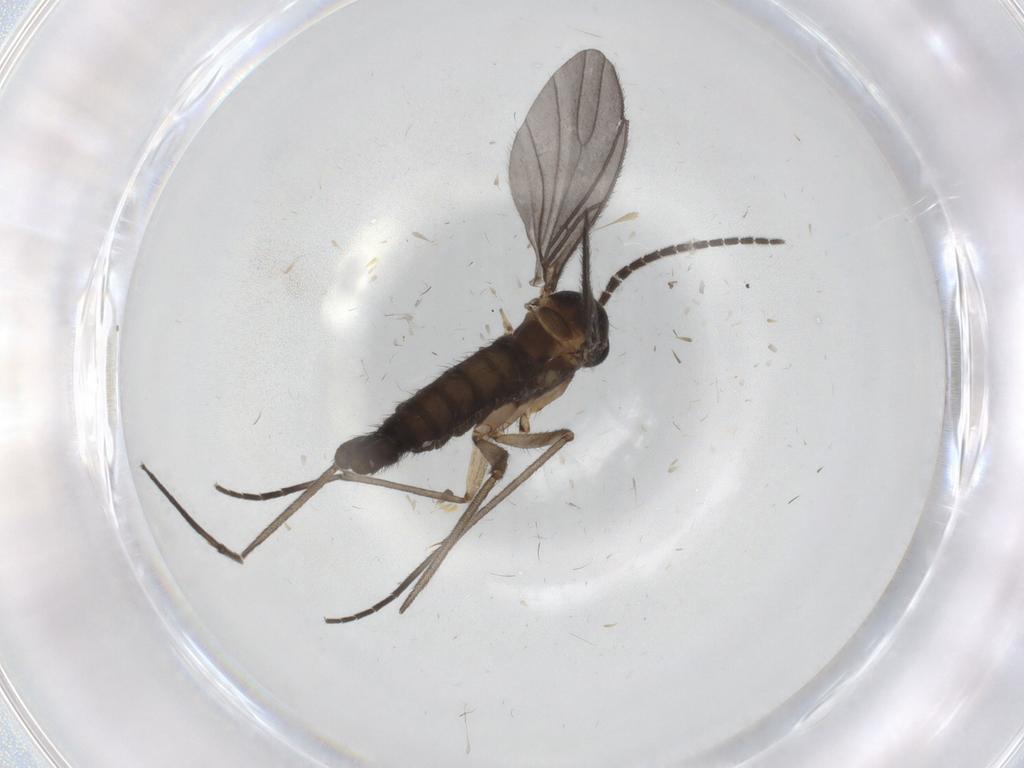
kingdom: Animalia
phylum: Arthropoda
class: Insecta
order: Diptera
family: Sciaridae
